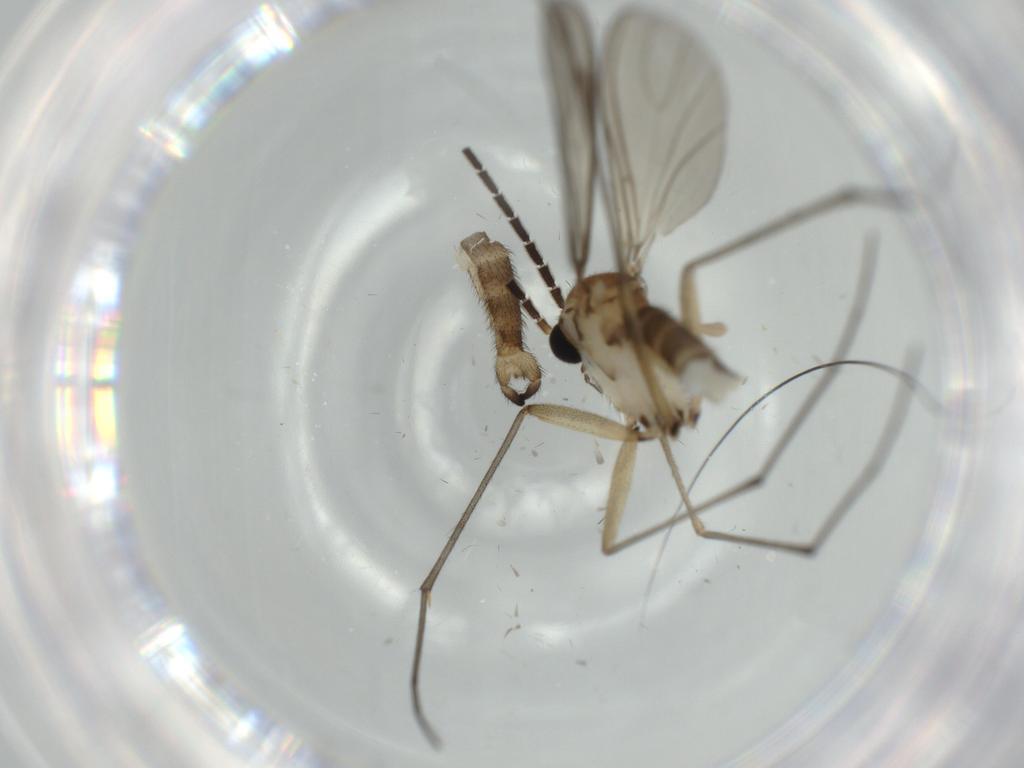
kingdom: Animalia
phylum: Arthropoda
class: Insecta
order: Diptera
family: Sciaridae
